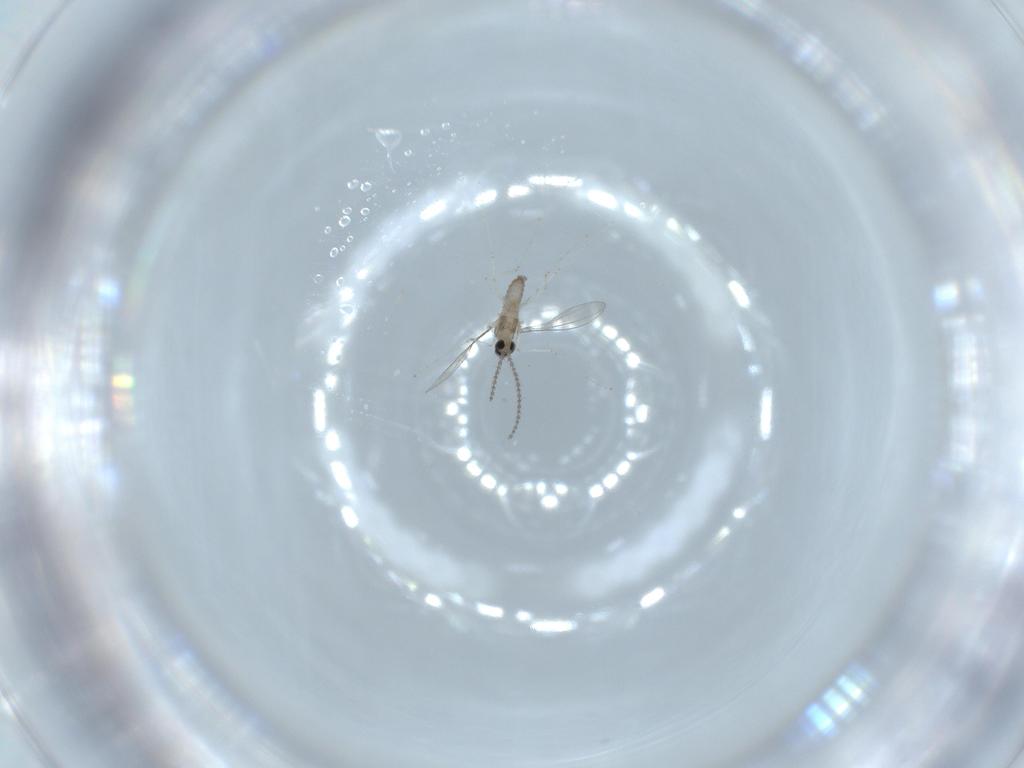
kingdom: Animalia
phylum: Arthropoda
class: Insecta
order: Diptera
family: Cecidomyiidae
